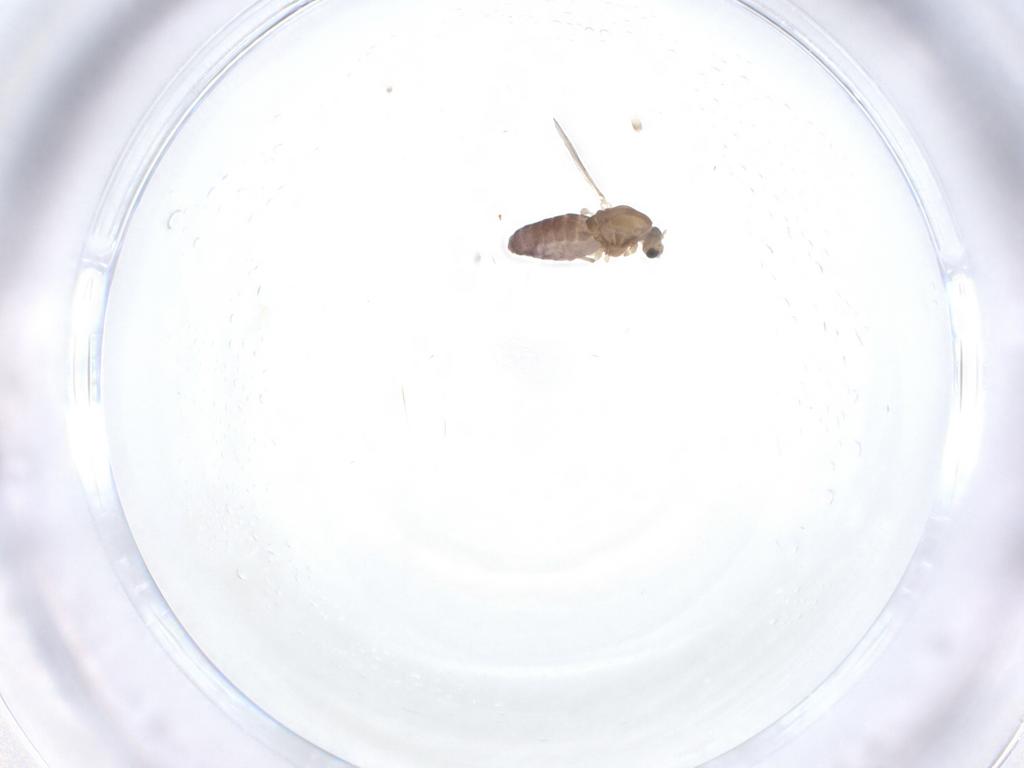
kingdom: Animalia
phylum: Arthropoda
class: Insecta
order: Diptera
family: Chironomidae
